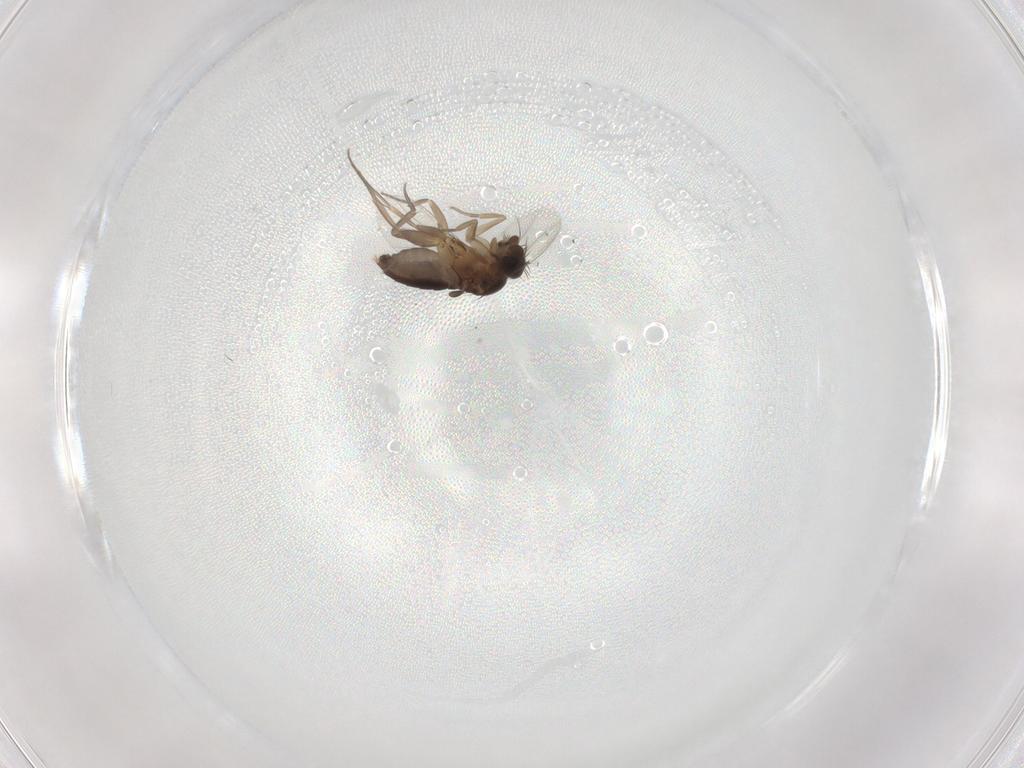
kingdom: Animalia
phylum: Arthropoda
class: Insecta
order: Diptera
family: Phoridae
